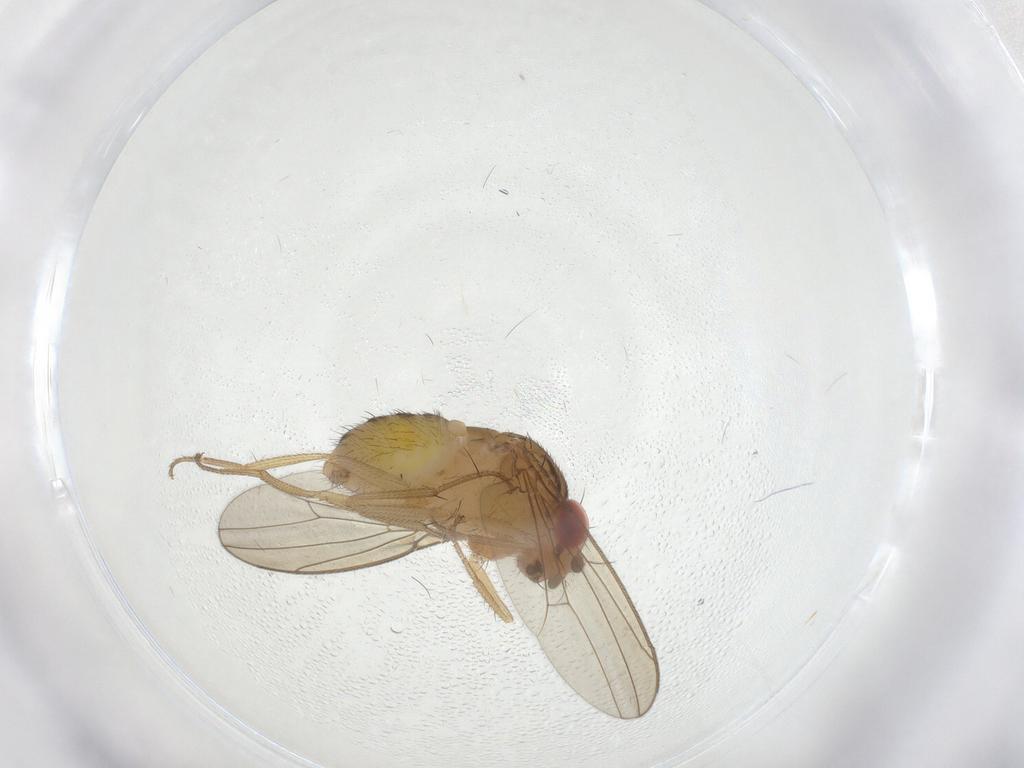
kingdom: Animalia
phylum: Arthropoda
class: Insecta
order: Diptera
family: Drosophilidae
